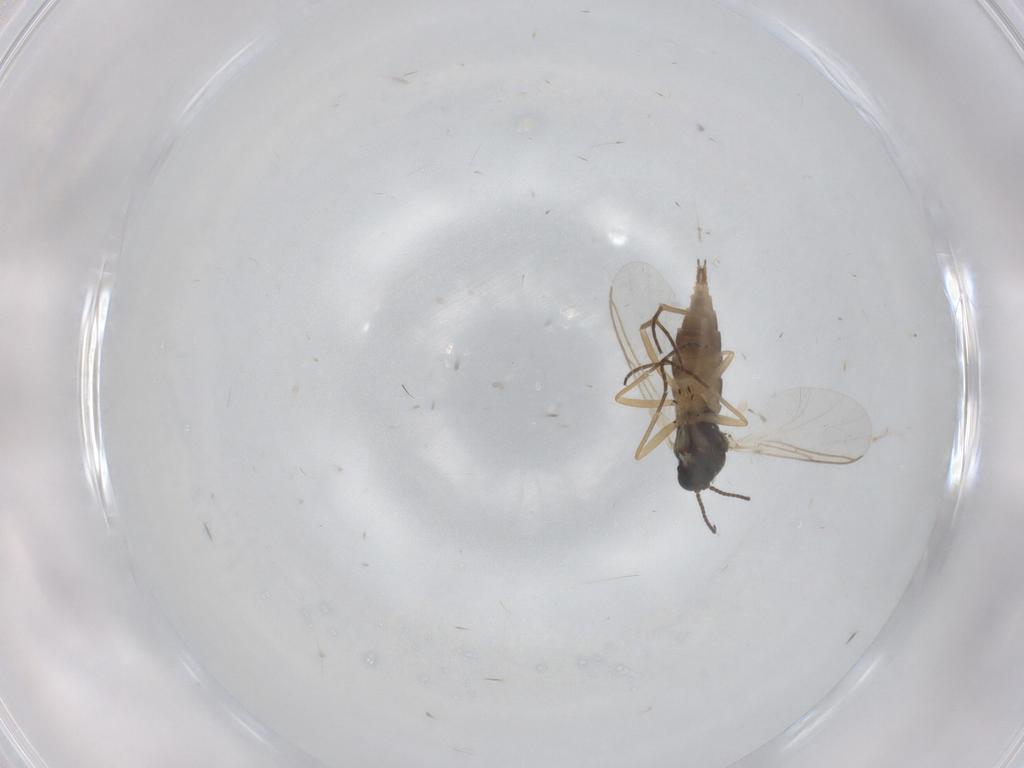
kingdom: Animalia
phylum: Arthropoda
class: Insecta
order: Diptera
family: Sciaridae
